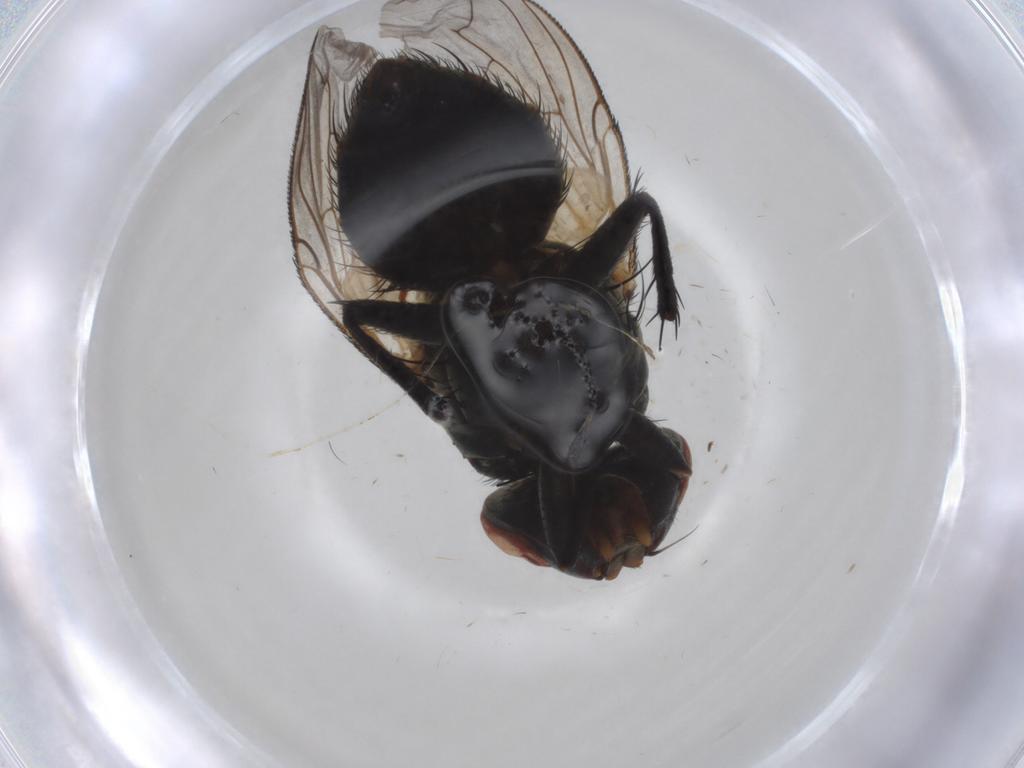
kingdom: Animalia
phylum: Arthropoda
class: Insecta
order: Diptera
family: Sarcophagidae
